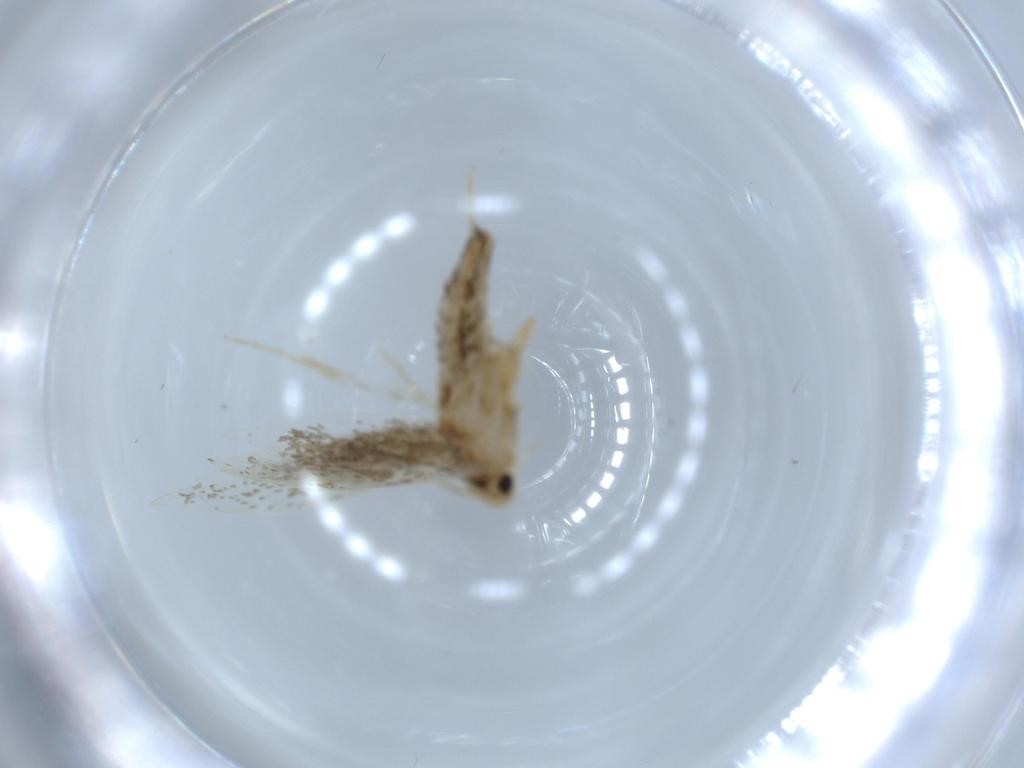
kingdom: Animalia
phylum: Arthropoda
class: Insecta
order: Lepidoptera
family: Tineidae
